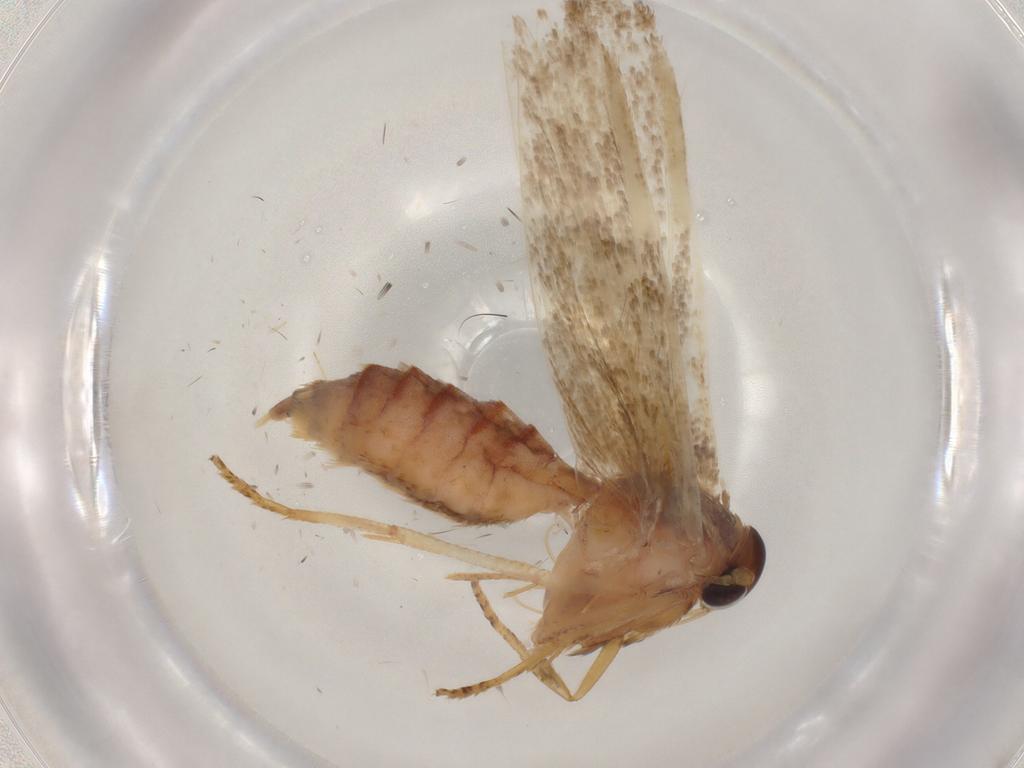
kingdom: Animalia
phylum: Arthropoda
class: Insecta
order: Lepidoptera
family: Blastobasidae
